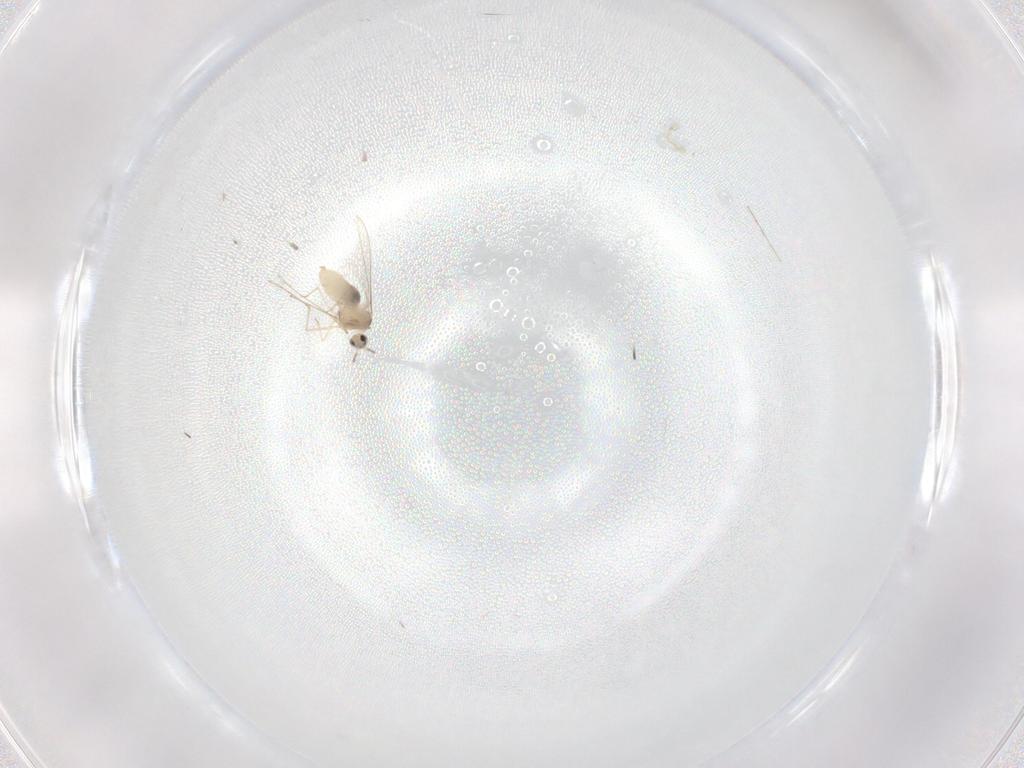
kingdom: Animalia
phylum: Arthropoda
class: Insecta
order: Diptera
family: Cecidomyiidae
